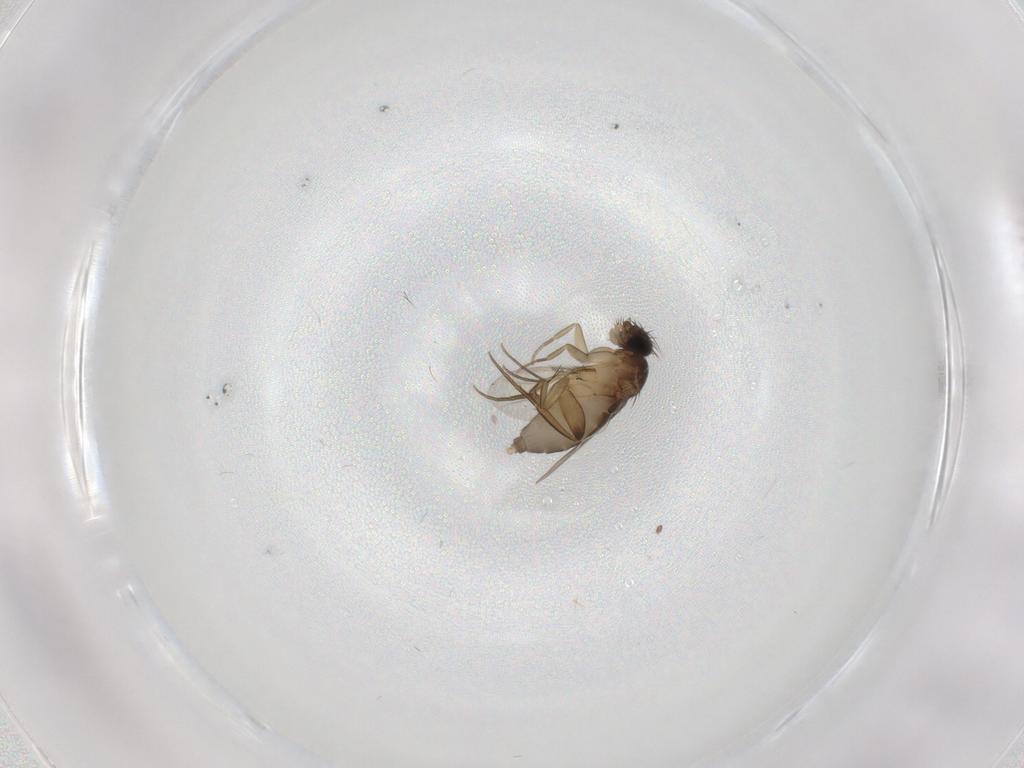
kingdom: Animalia
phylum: Arthropoda
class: Insecta
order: Diptera
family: Phoridae
